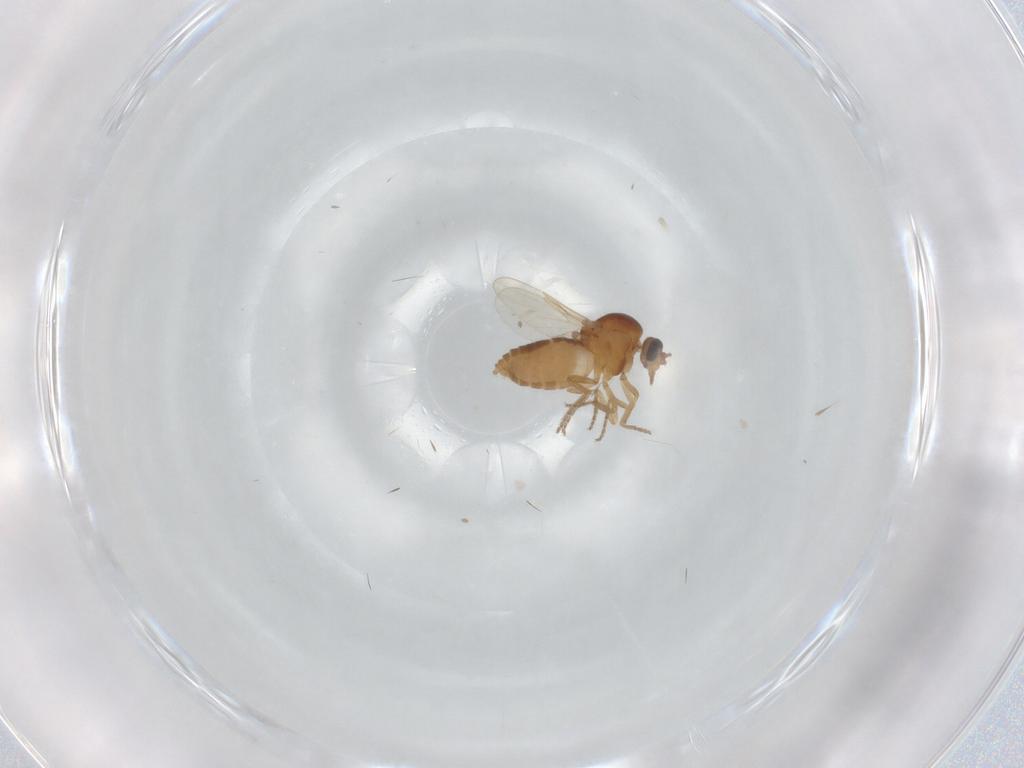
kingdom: Animalia
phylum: Arthropoda
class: Insecta
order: Diptera
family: Ceratopogonidae
